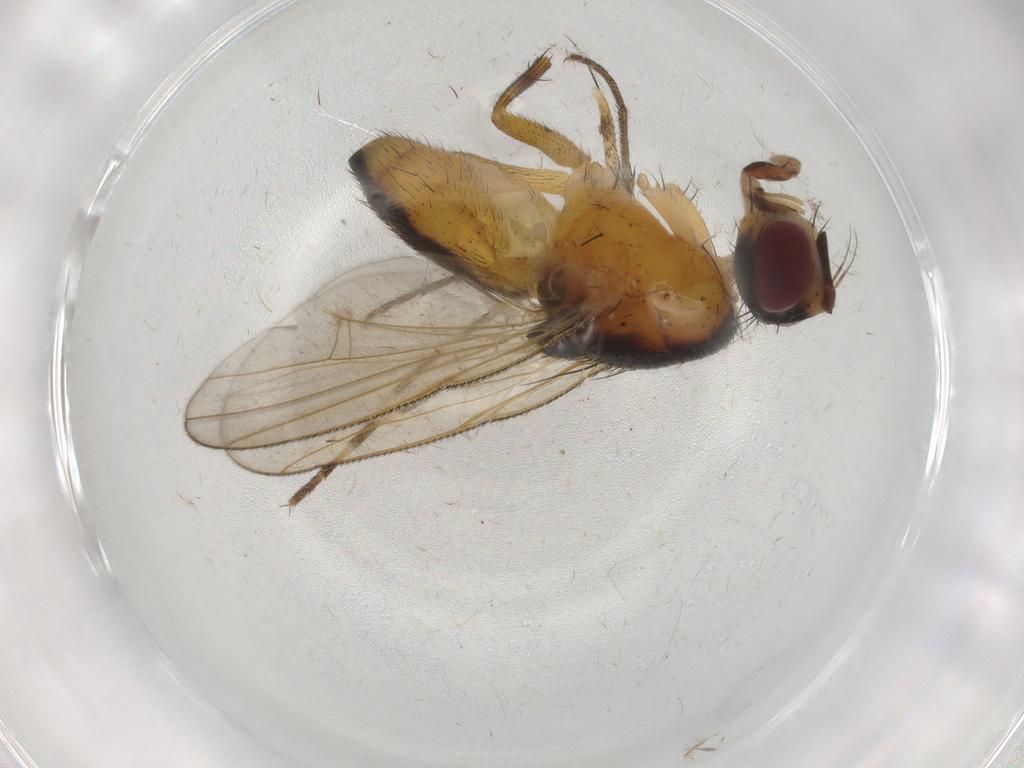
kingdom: Animalia
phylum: Arthropoda
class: Insecta
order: Diptera
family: Muscidae
